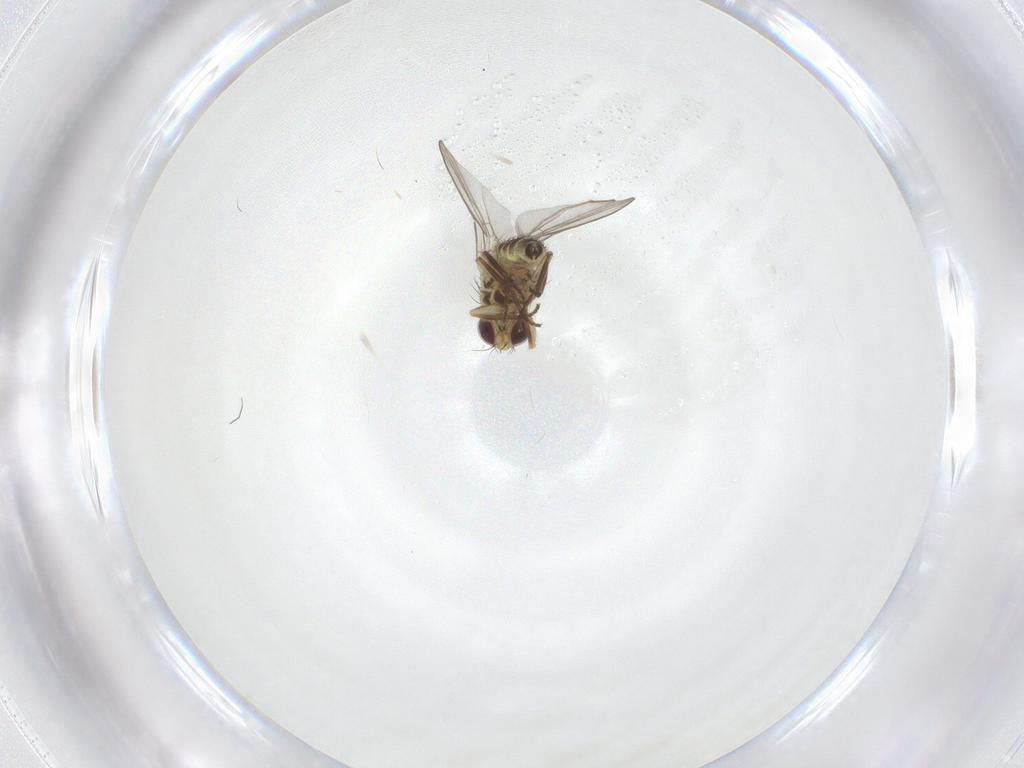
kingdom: Animalia
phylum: Arthropoda
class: Insecta
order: Diptera
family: Agromyzidae
